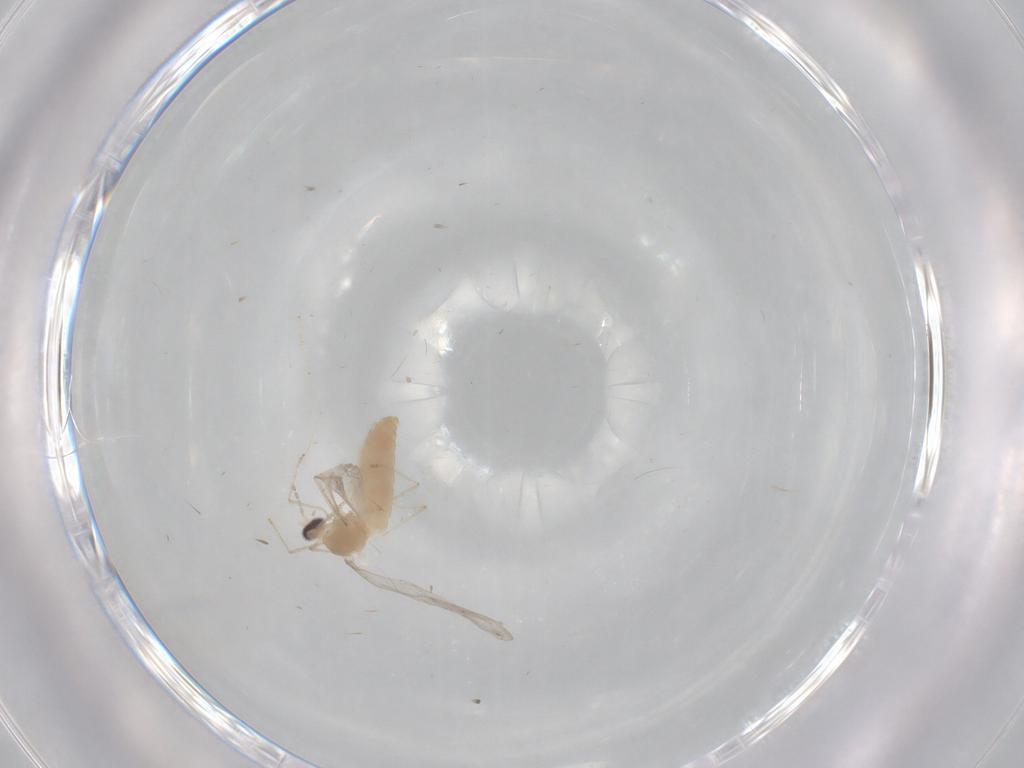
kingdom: Animalia
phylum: Arthropoda
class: Insecta
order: Diptera
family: Cecidomyiidae
